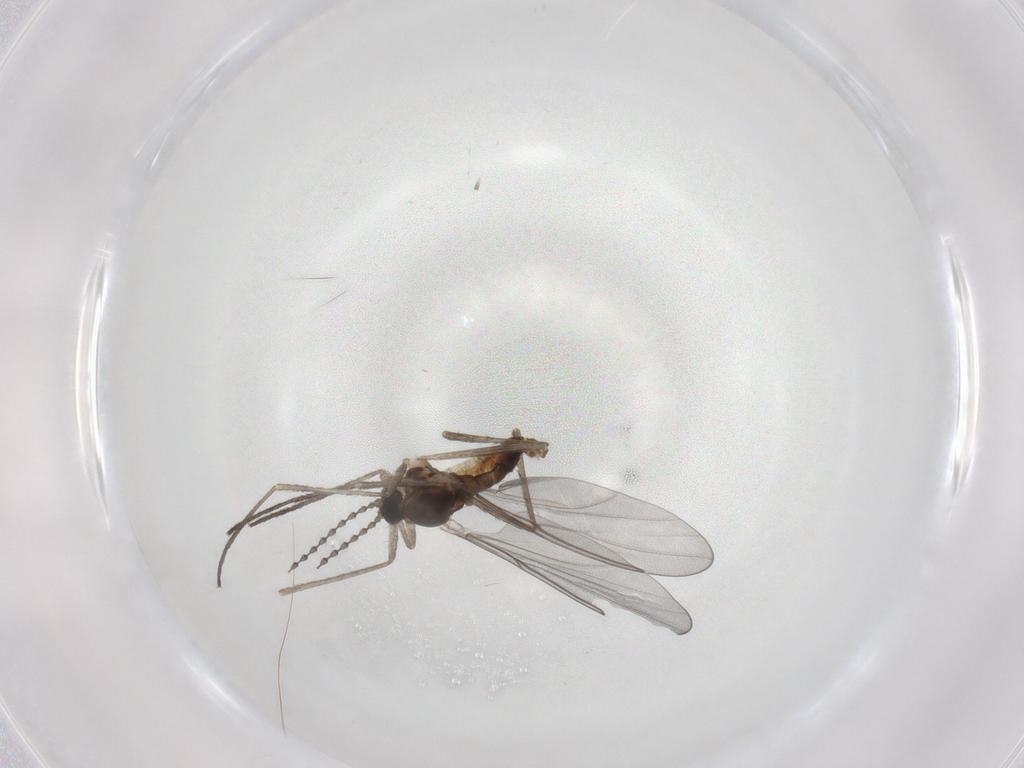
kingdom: Animalia
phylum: Arthropoda
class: Insecta
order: Diptera
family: Cecidomyiidae
